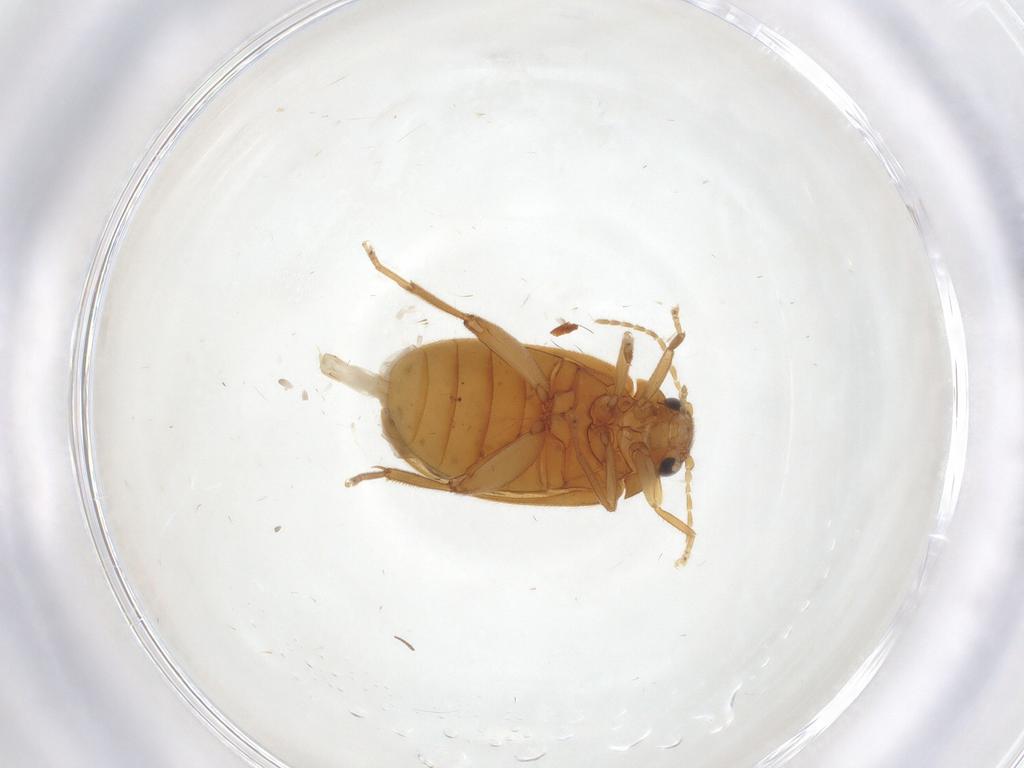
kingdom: Animalia
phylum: Arthropoda
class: Insecta
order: Coleoptera
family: Scirtidae
